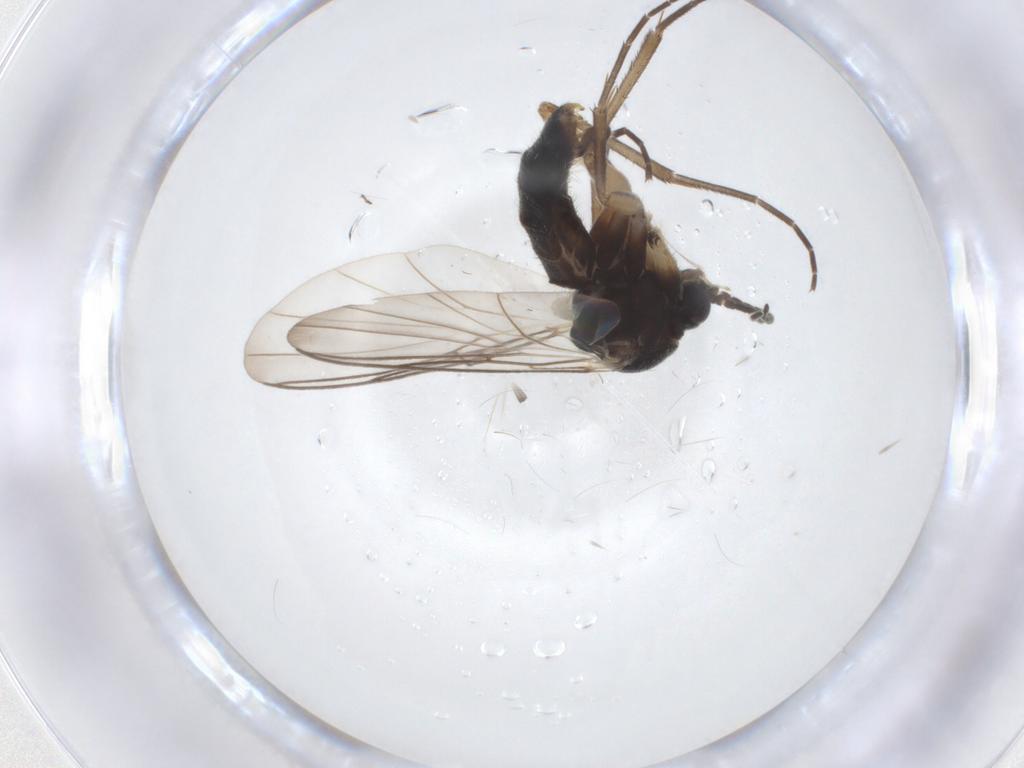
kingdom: Animalia
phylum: Arthropoda
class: Insecta
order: Diptera
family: Mycetophilidae
